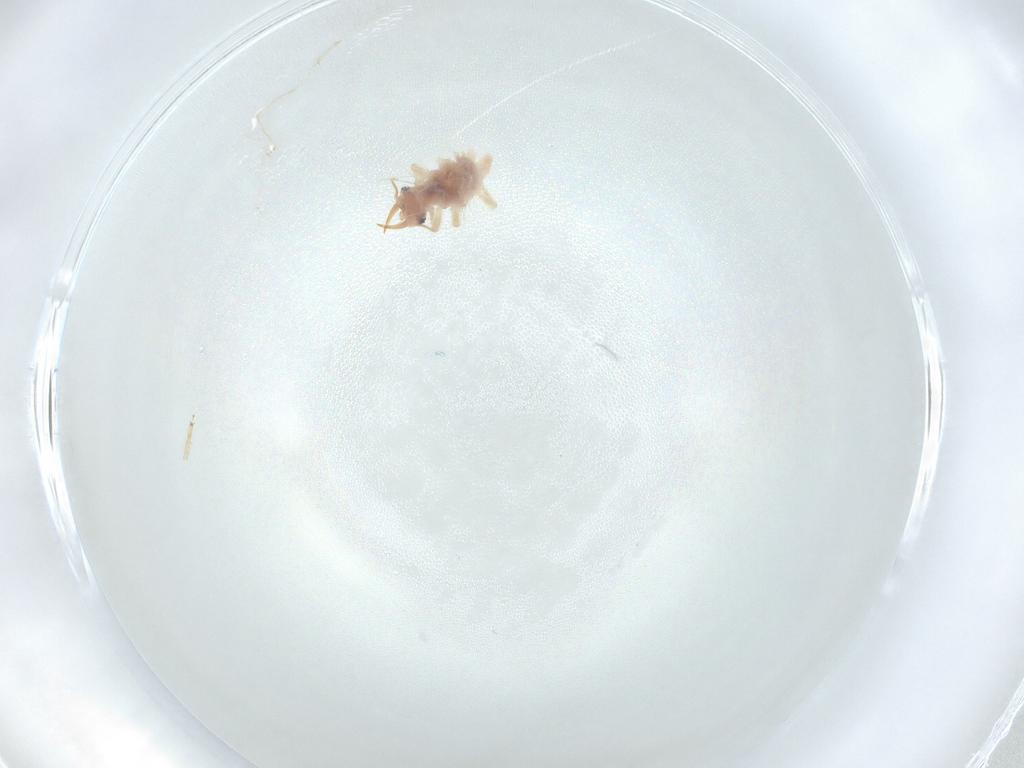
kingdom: Animalia
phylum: Arthropoda
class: Insecta
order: Neuroptera
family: Chrysopidae
